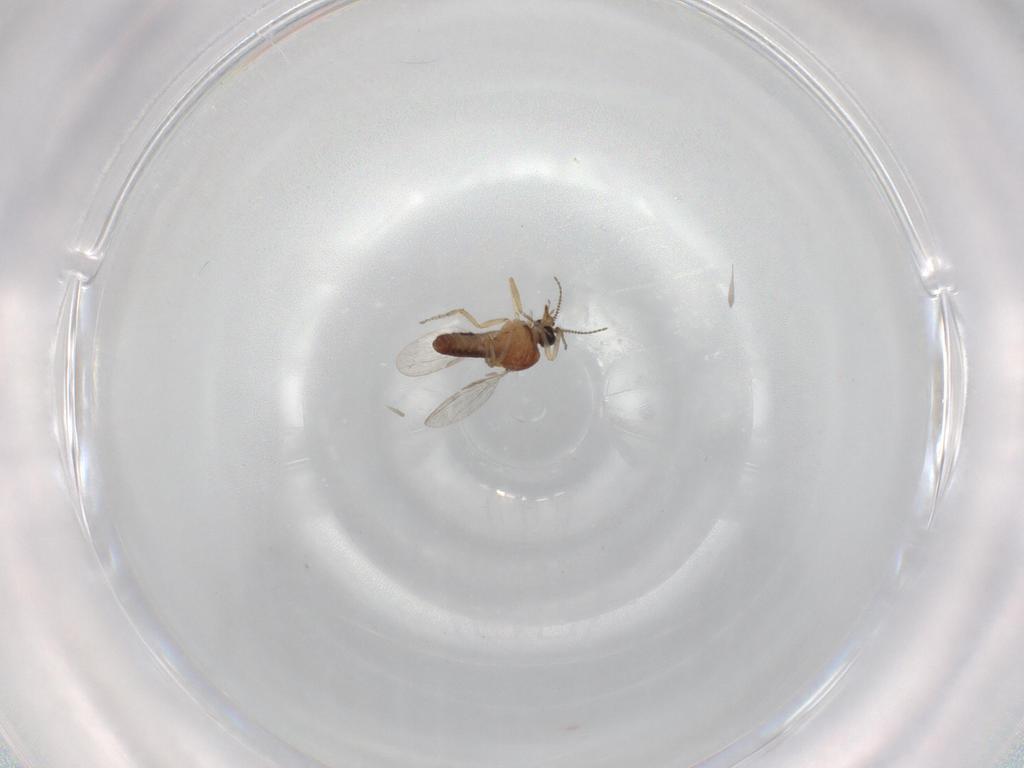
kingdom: Animalia
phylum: Arthropoda
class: Insecta
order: Diptera
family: Ceratopogonidae
